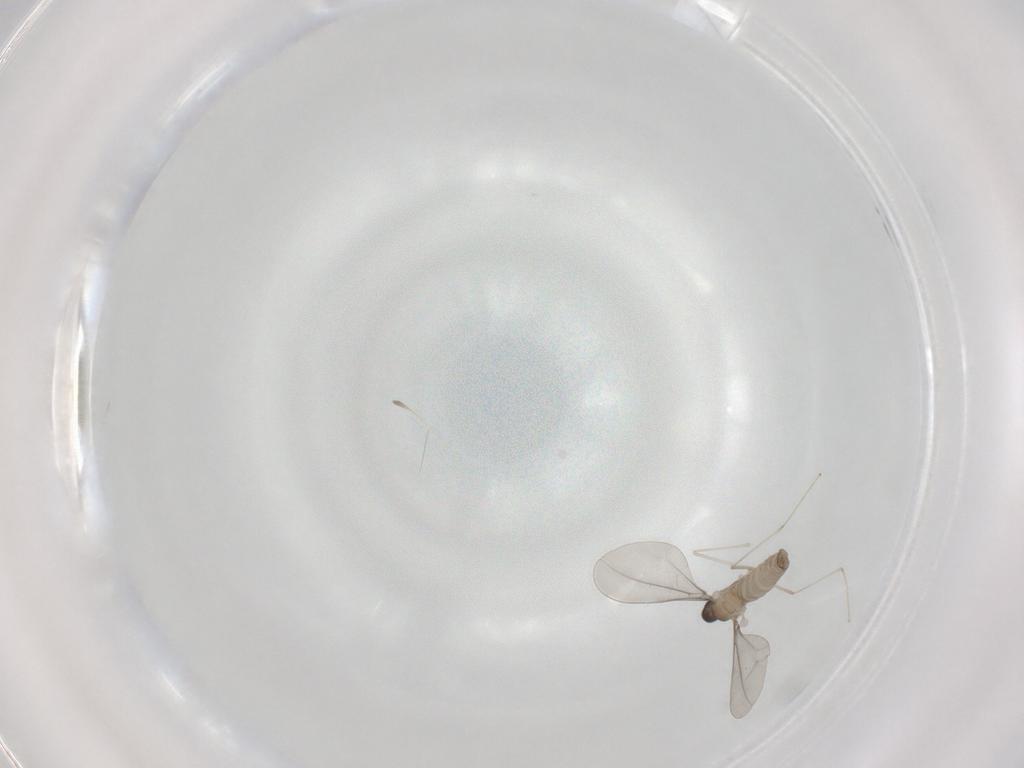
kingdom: Animalia
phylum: Arthropoda
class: Insecta
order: Diptera
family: Cecidomyiidae
